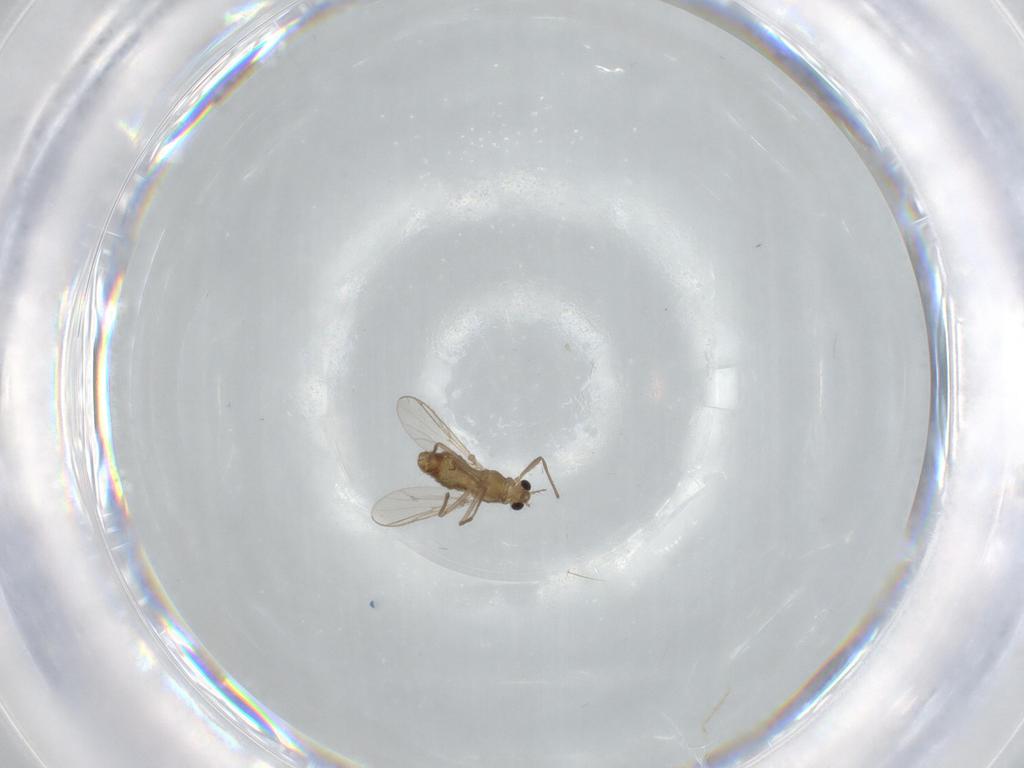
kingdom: Animalia
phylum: Arthropoda
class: Insecta
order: Diptera
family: Chironomidae
